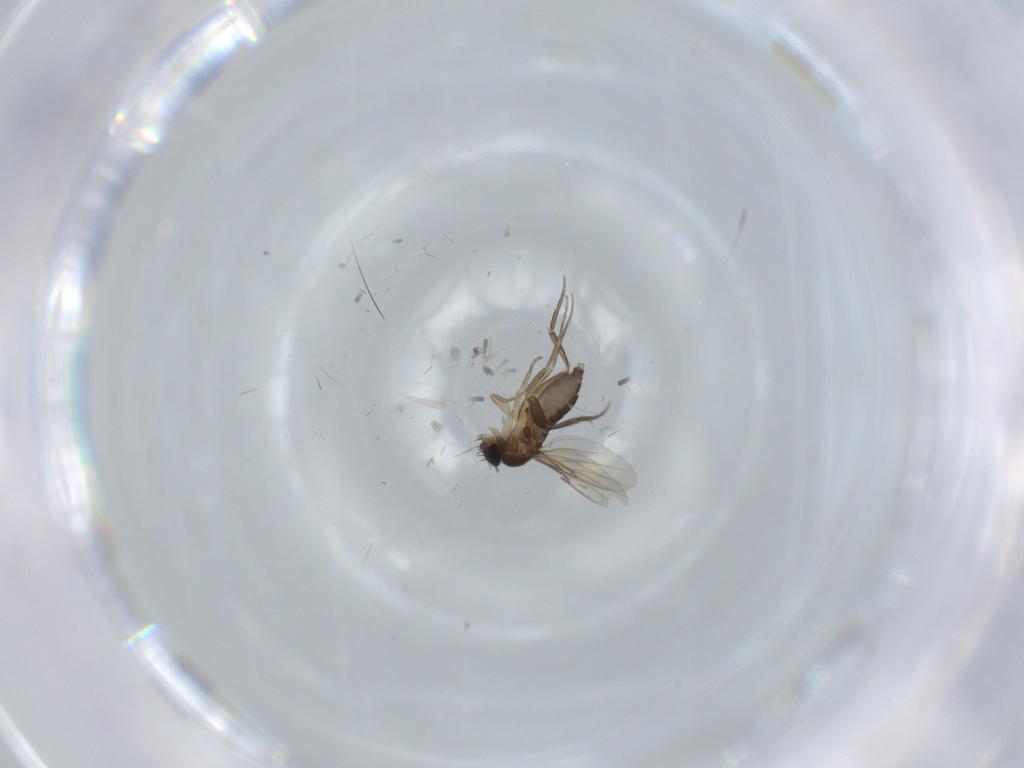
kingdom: Animalia
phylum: Arthropoda
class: Insecta
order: Diptera
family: Phoridae
